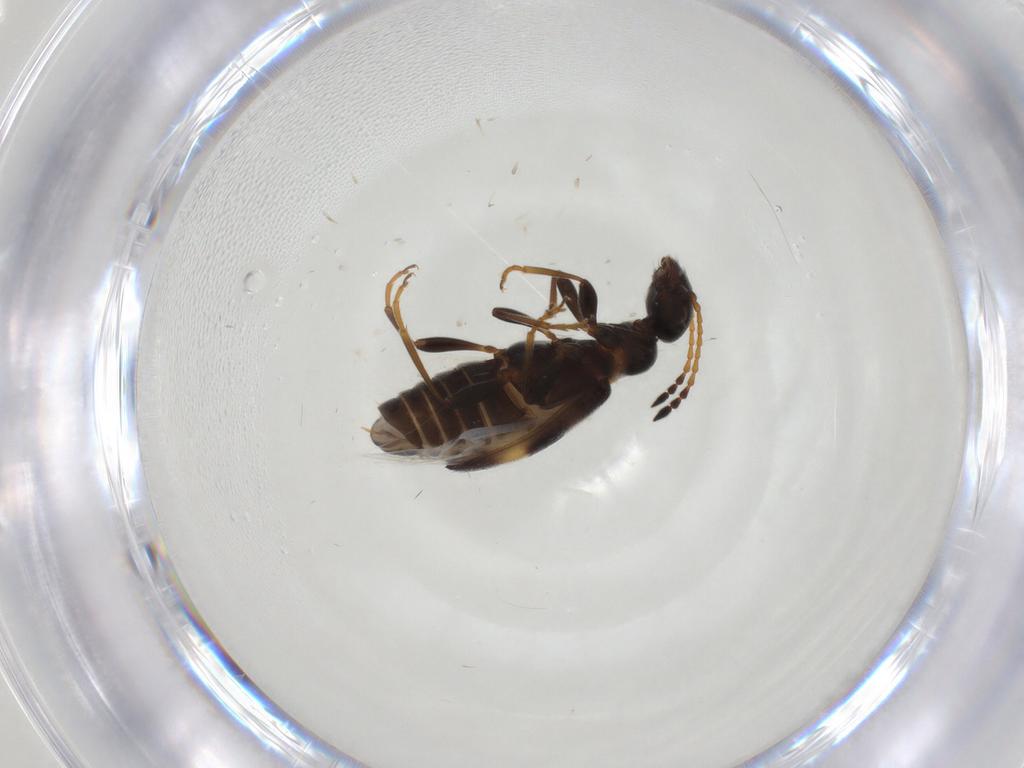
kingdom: Animalia
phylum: Arthropoda
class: Insecta
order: Coleoptera
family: Anthicidae
